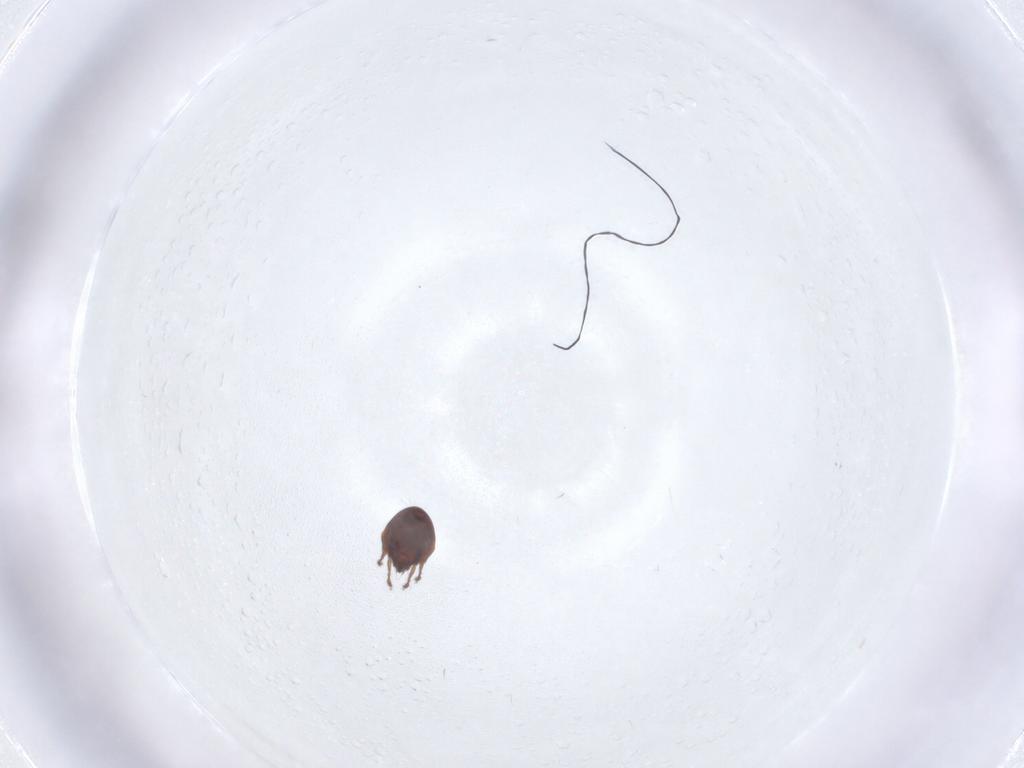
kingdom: Animalia
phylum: Arthropoda
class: Arachnida
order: Sarcoptiformes
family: Ceratozetidae
